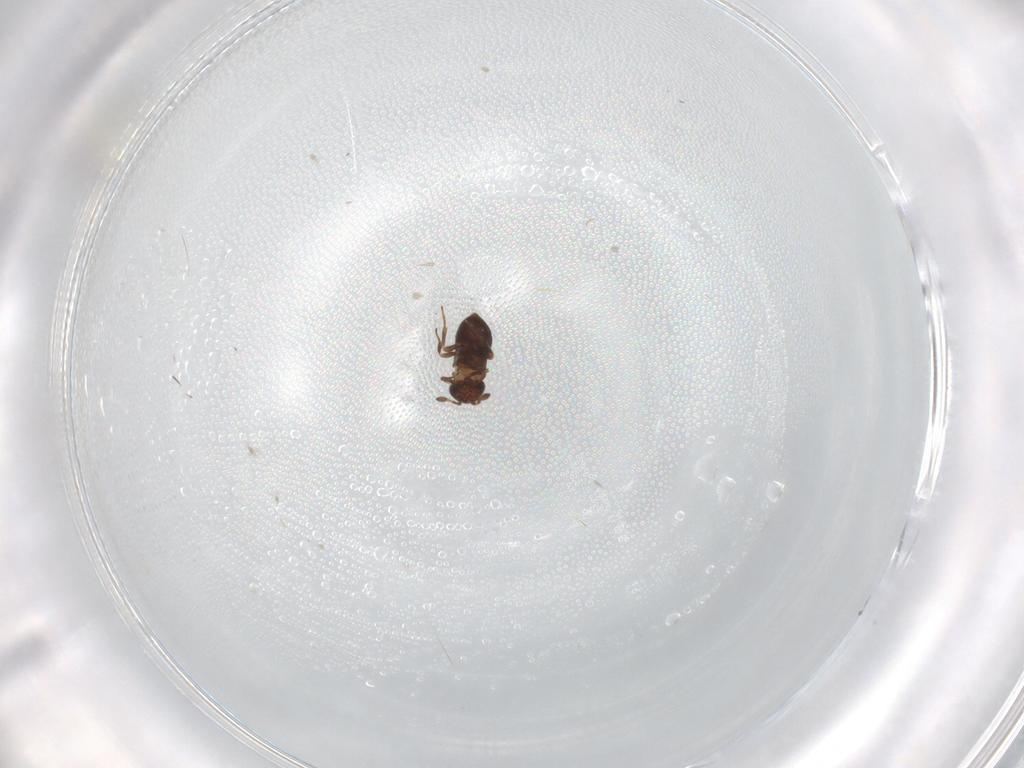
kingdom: Animalia
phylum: Arthropoda
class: Insecta
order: Hymenoptera
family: Scelionidae
